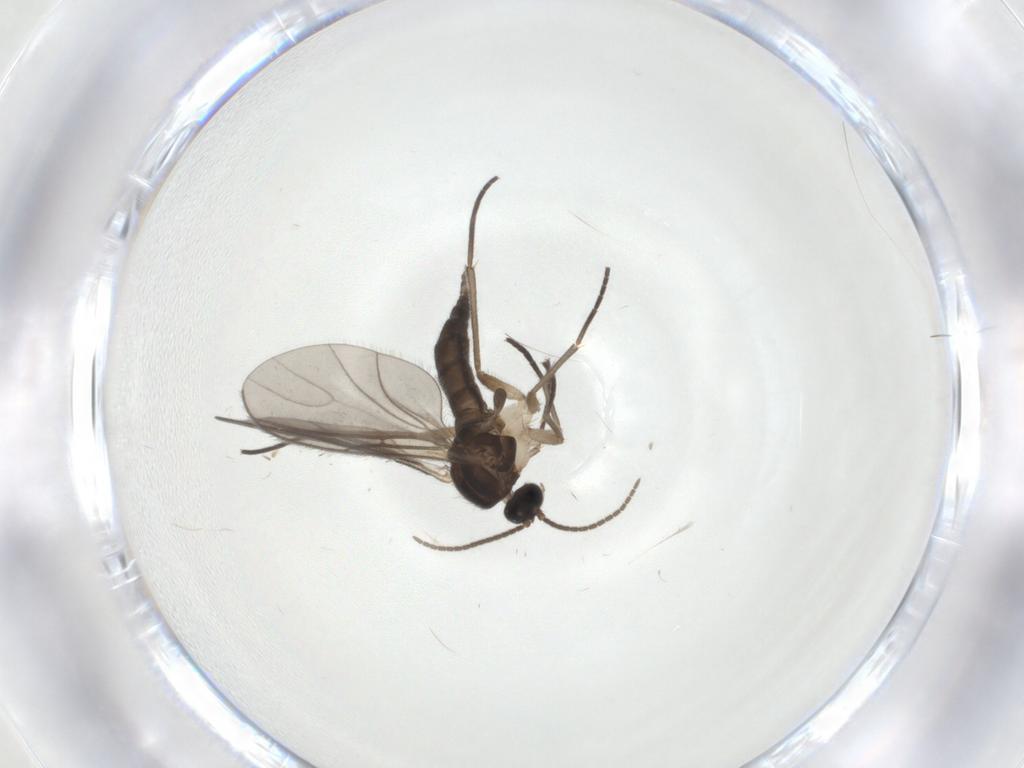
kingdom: Animalia
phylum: Arthropoda
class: Insecta
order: Diptera
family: Sciaridae
